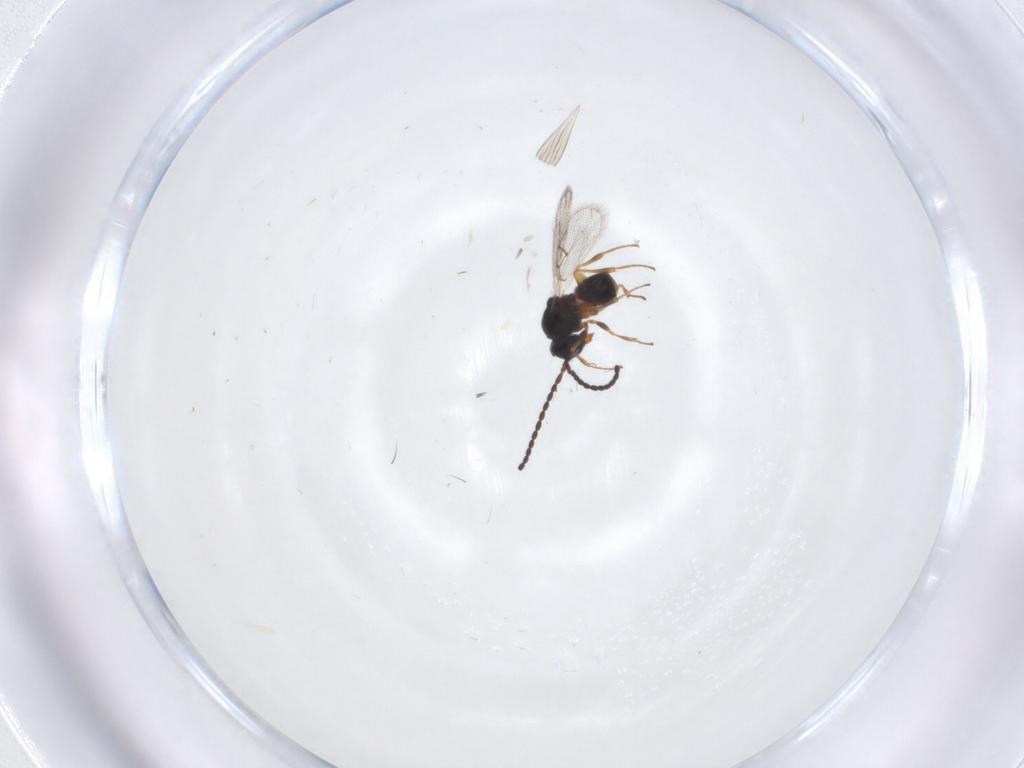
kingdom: Animalia
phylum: Arthropoda
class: Insecta
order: Hymenoptera
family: Figitidae
